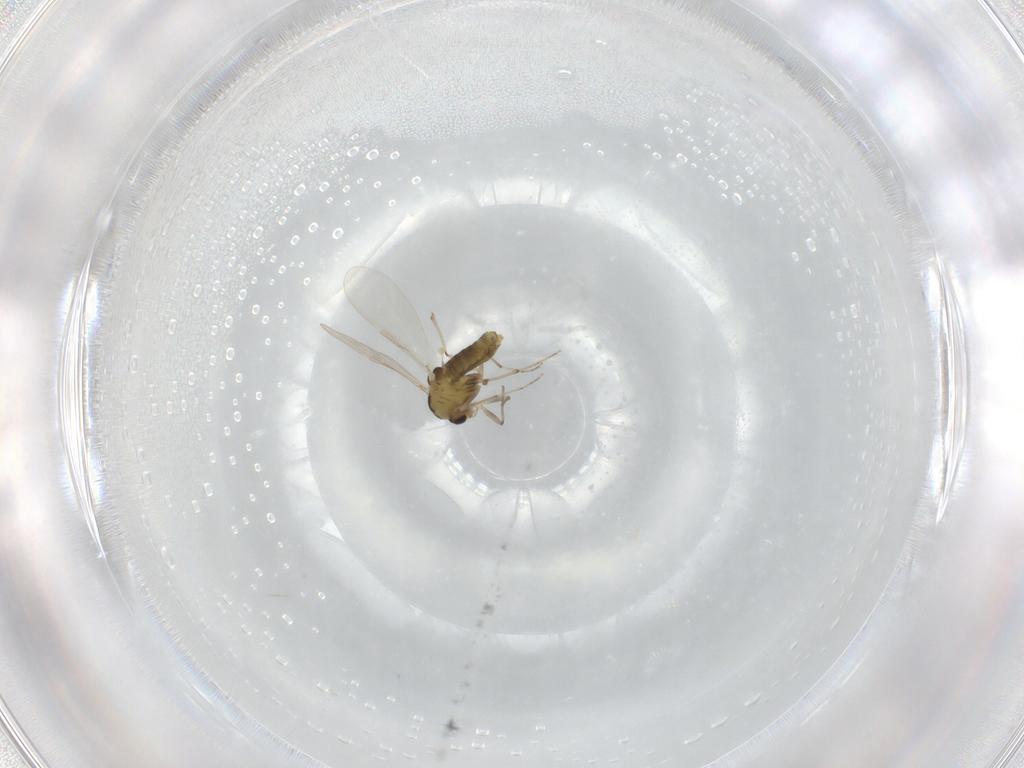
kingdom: Animalia
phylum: Arthropoda
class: Insecta
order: Diptera
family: Chironomidae
